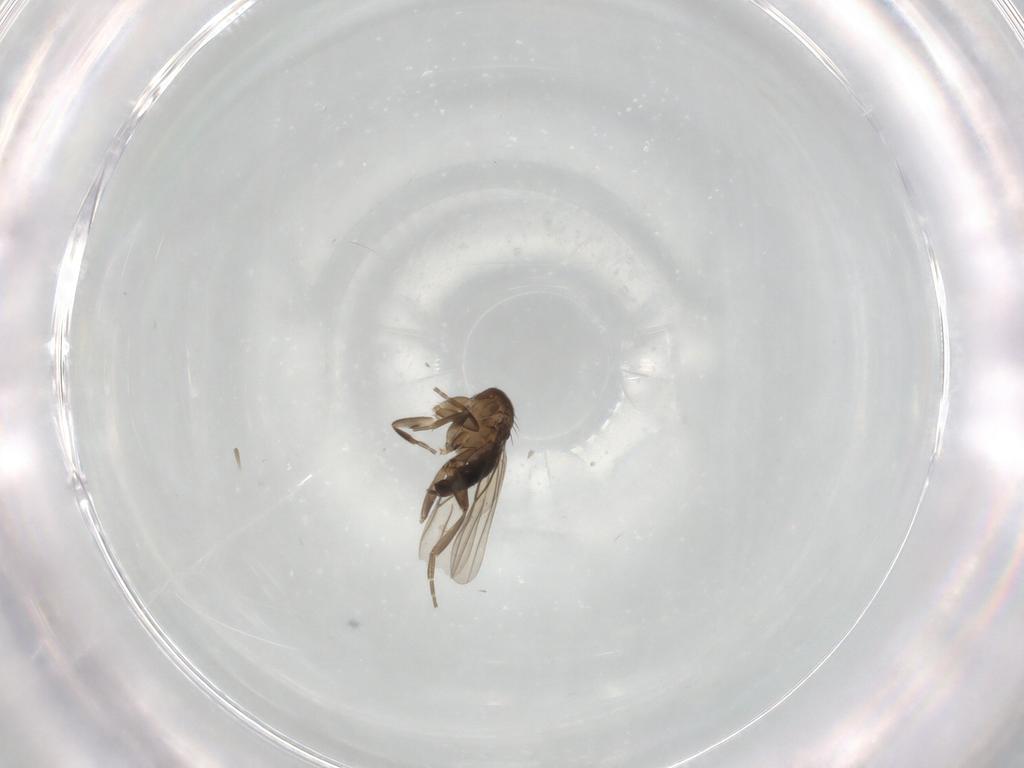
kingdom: Animalia
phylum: Arthropoda
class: Insecta
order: Diptera
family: Phoridae
